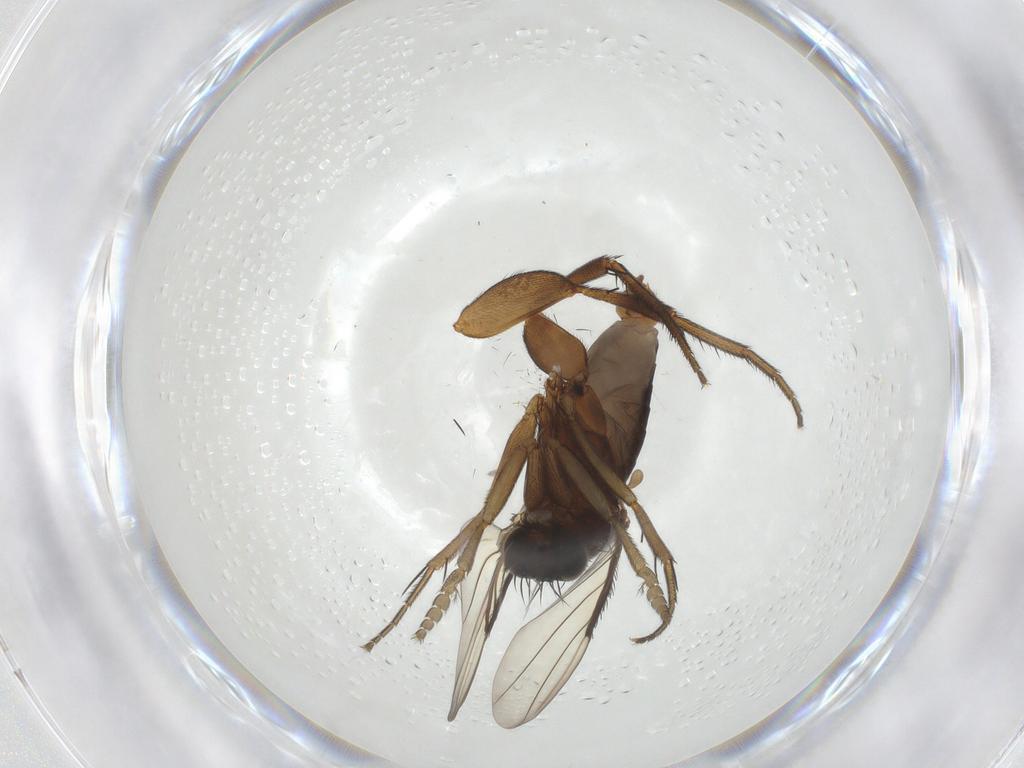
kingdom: Animalia
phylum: Arthropoda
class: Insecta
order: Diptera
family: Phoridae
